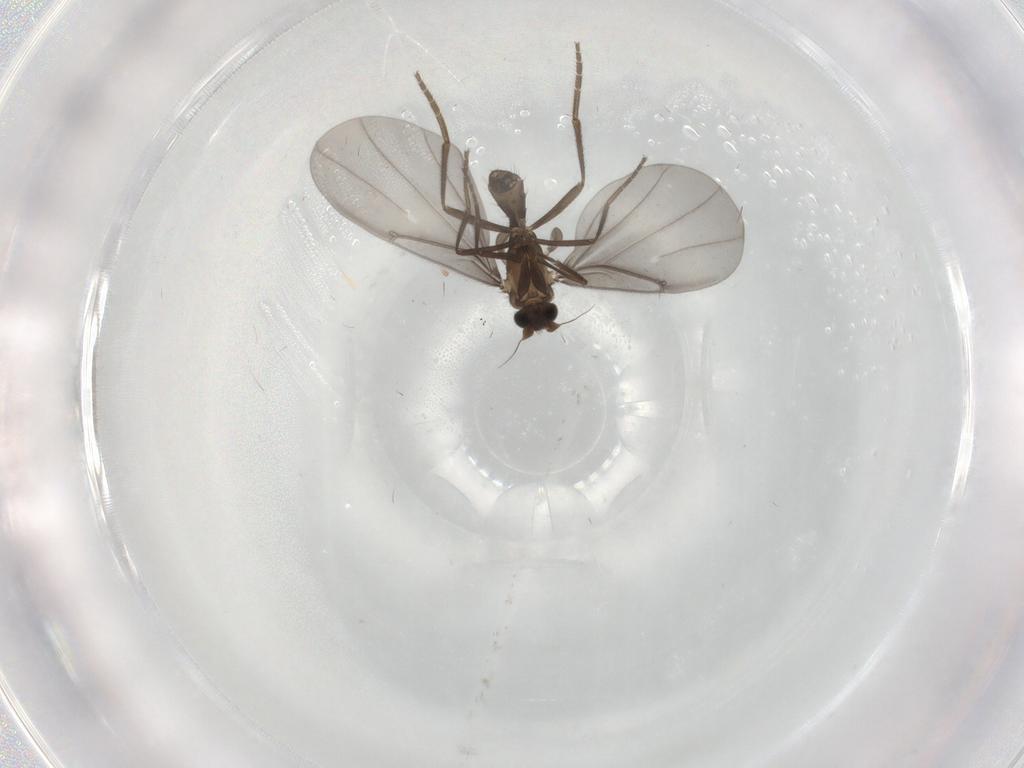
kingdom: Animalia
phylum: Arthropoda
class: Insecta
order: Diptera
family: Phoridae
